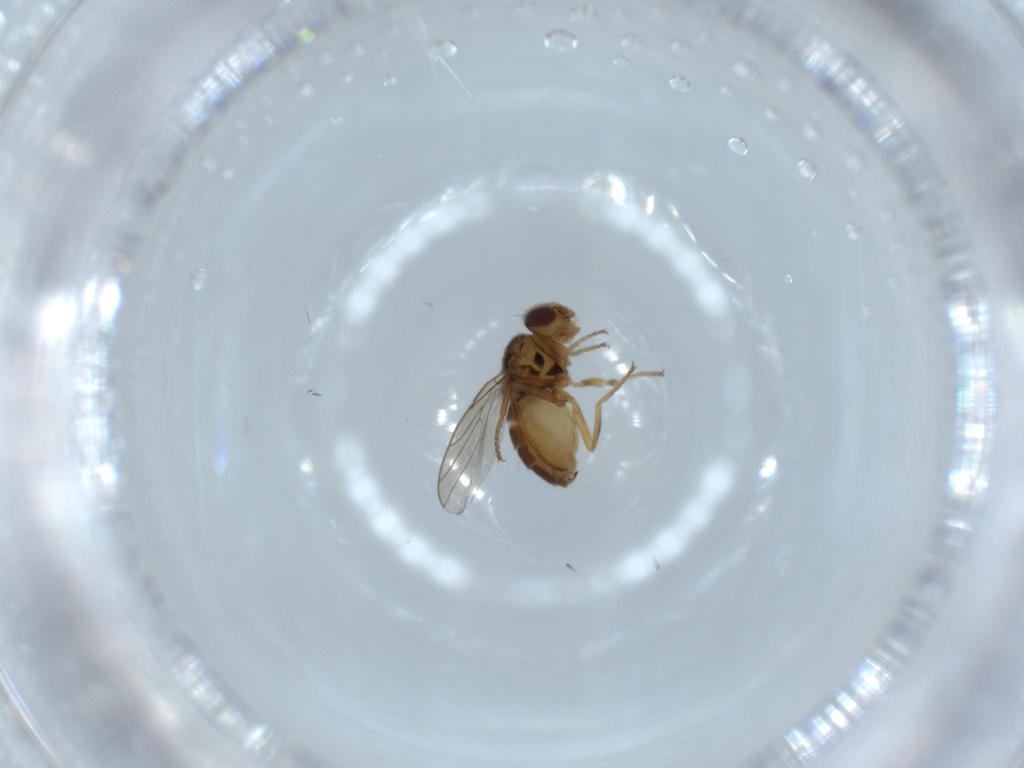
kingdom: Animalia
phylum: Arthropoda
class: Insecta
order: Diptera
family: Chloropidae
